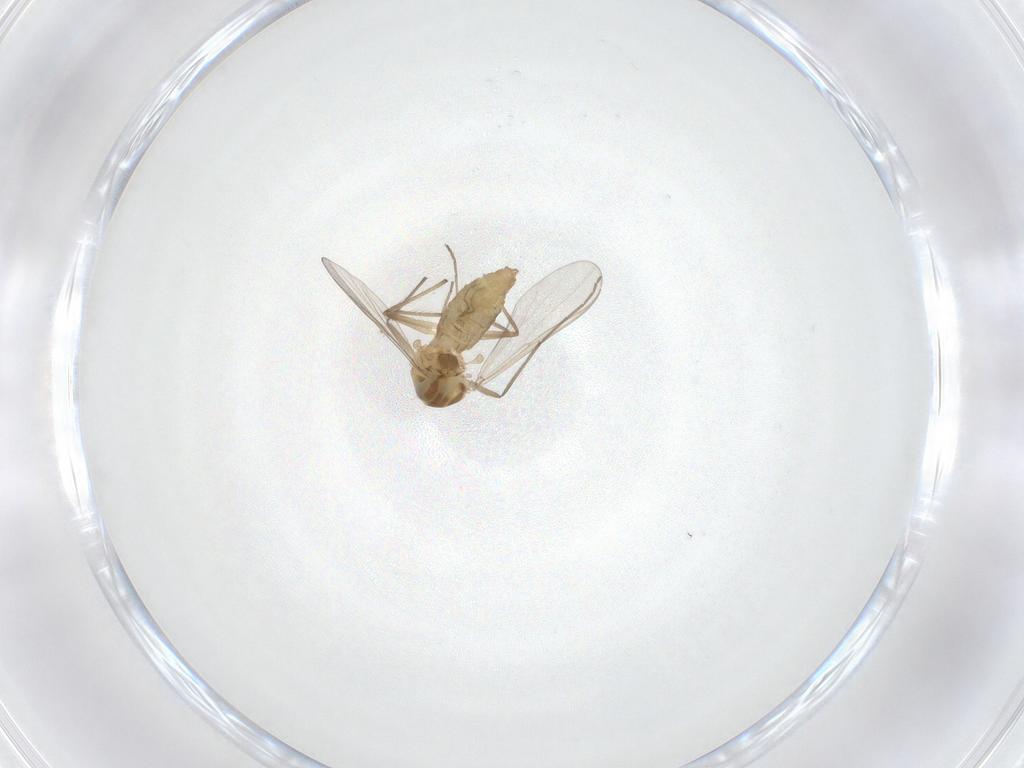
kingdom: Animalia
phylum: Arthropoda
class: Insecta
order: Diptera
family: Chironomidae
